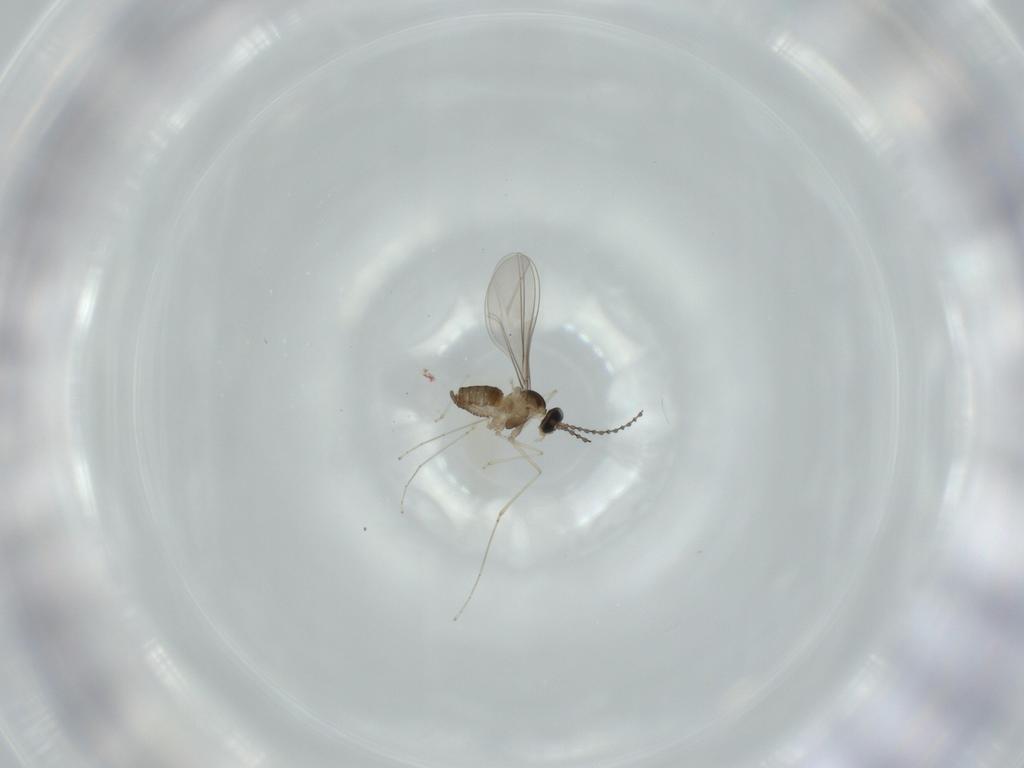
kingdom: Animalia
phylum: Arthropoda
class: Insecta
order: Diptera
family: Cecidomyiidae
